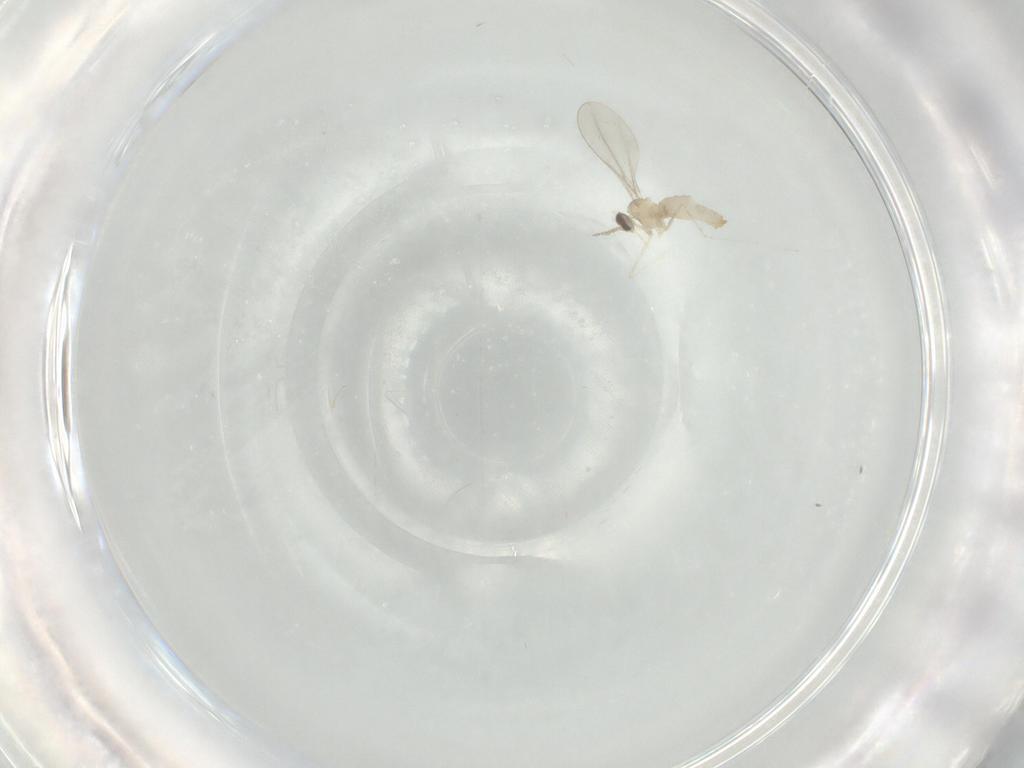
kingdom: Animalia
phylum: Arthropoda
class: Insecta
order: Diptera
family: Cecidomyiidae
